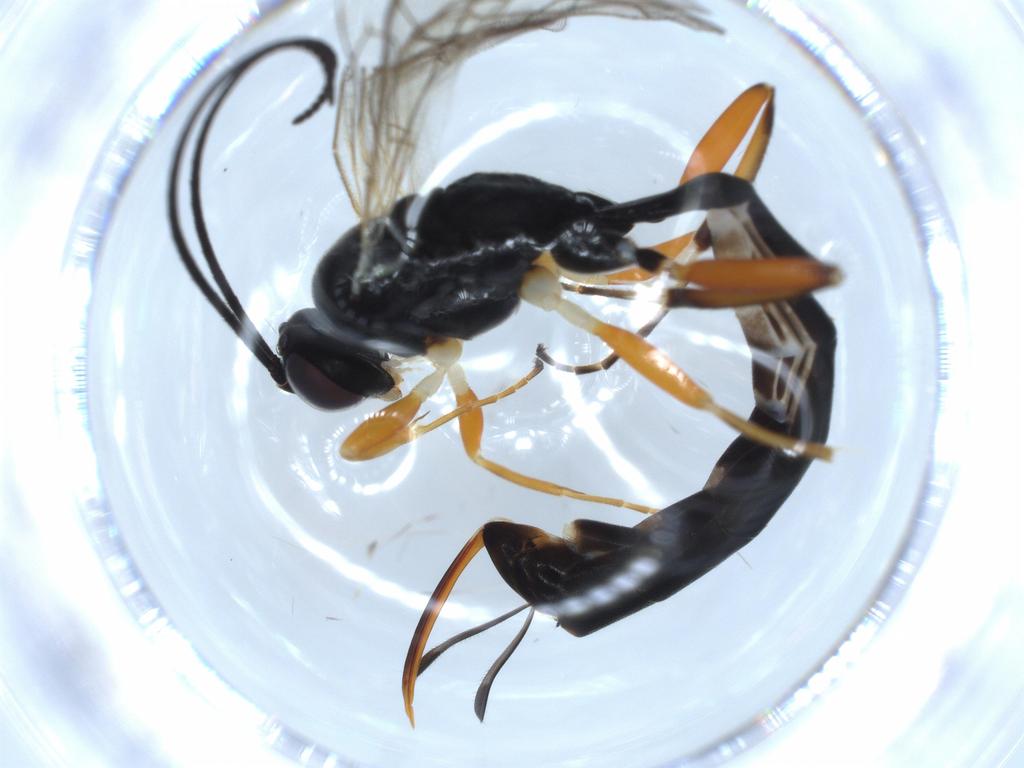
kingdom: Animalia
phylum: Arthropoda
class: Insecta
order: Hymenoptera
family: Ichneumonidae
